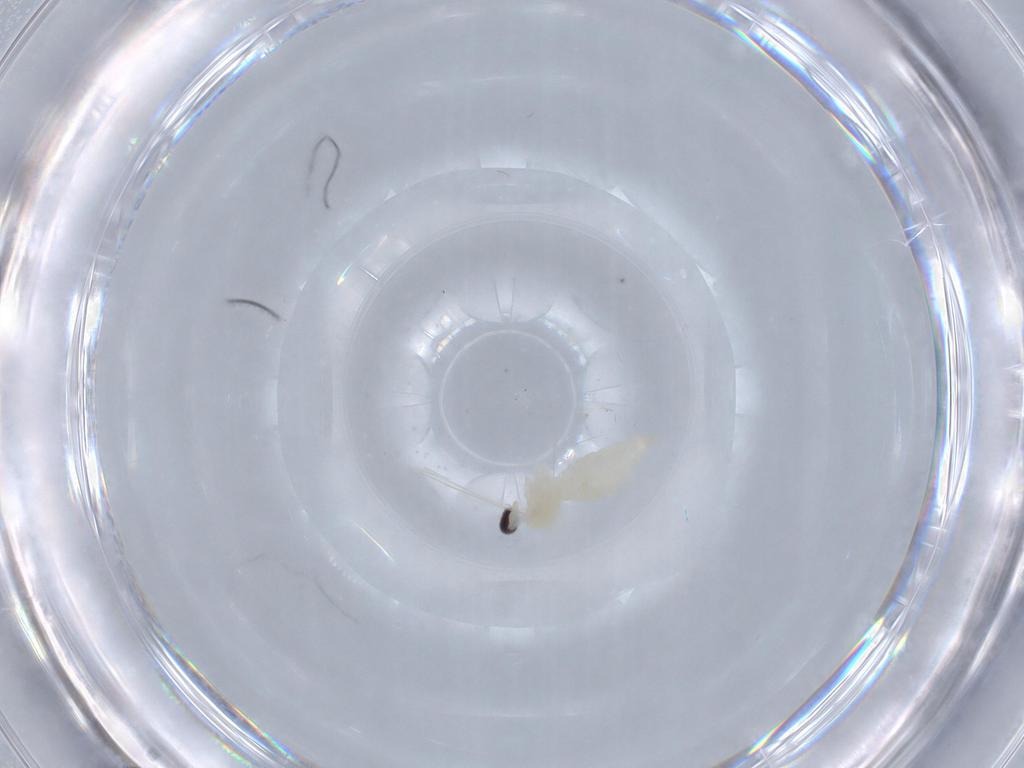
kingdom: Animalia
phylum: Arthropoda
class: Insecta
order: Diptera
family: Cecidomyiidae
